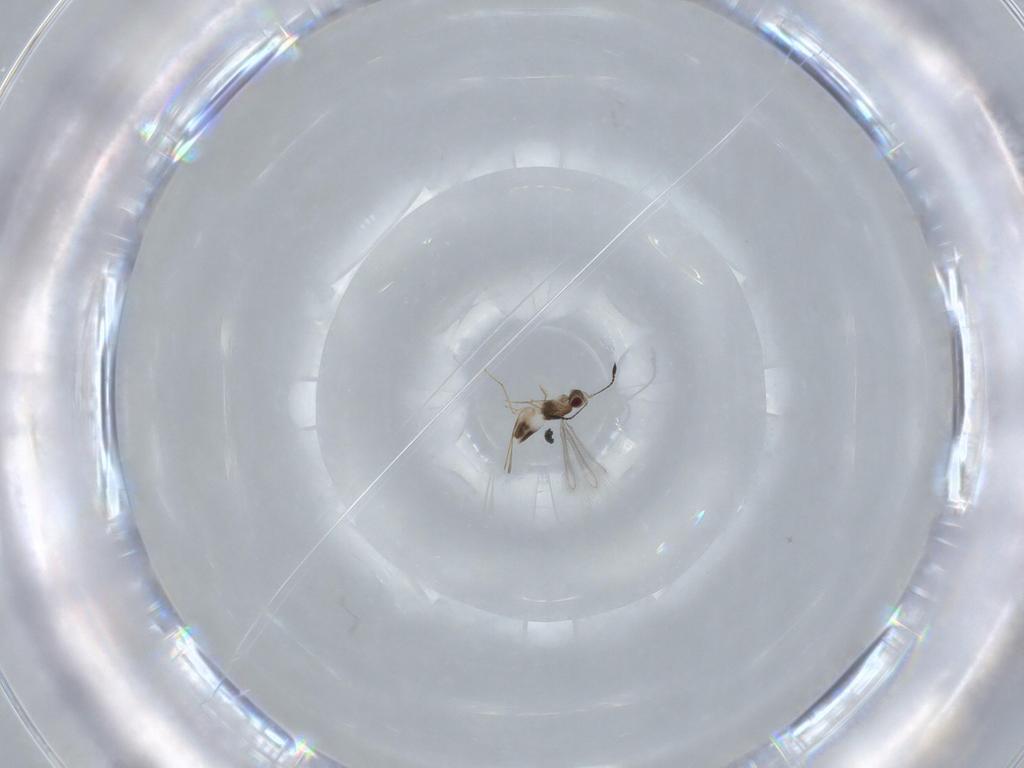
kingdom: Animalia
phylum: Arthropoda
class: Insecta
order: Hymenoptera
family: Mymaridae
